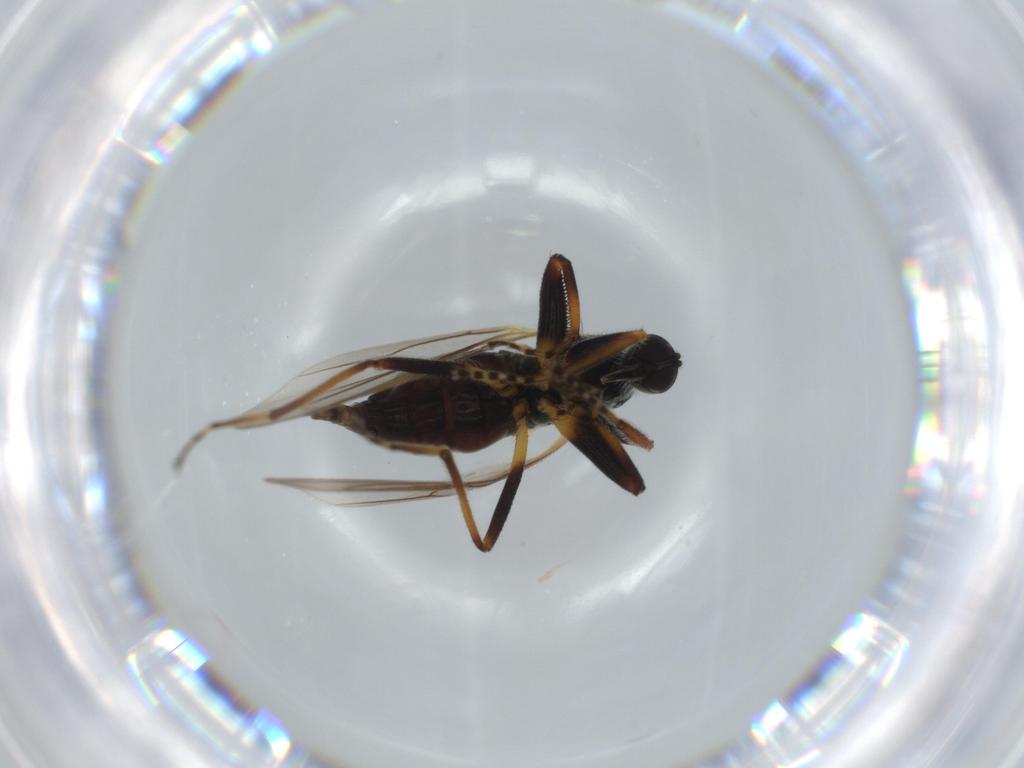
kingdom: Animalia
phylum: Arthropoda
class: Insecta
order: Diptera
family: Hybotidae
